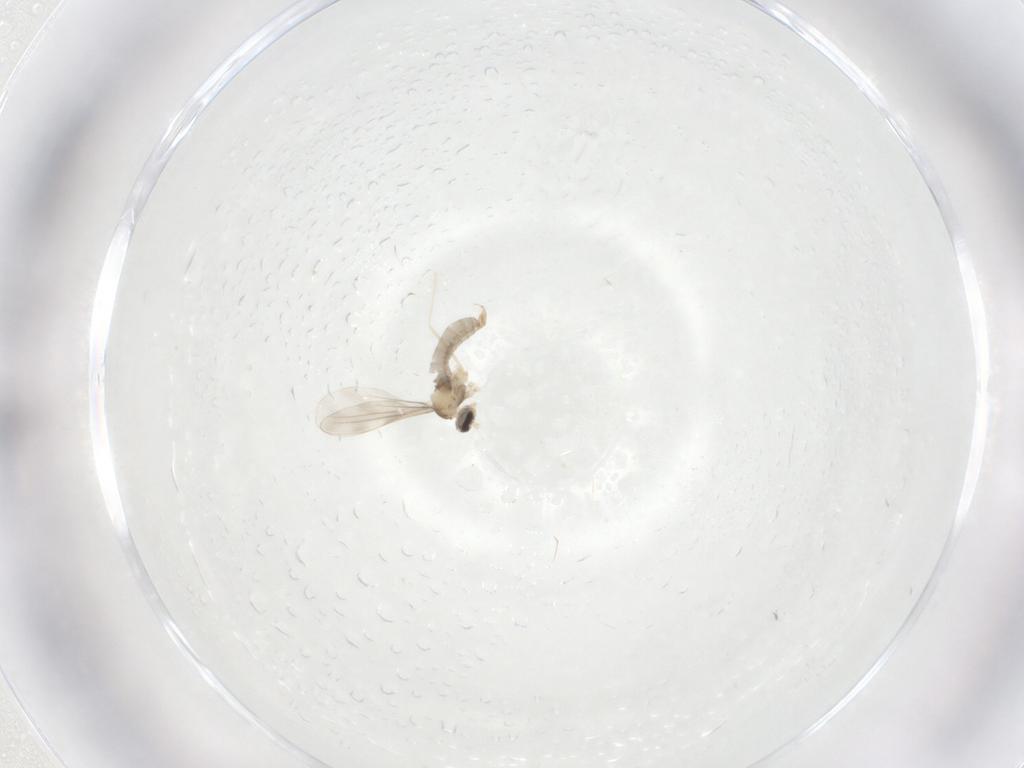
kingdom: Animalia
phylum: Arthropoda
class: Insecta
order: Diptera
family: Cecidomyiidae
